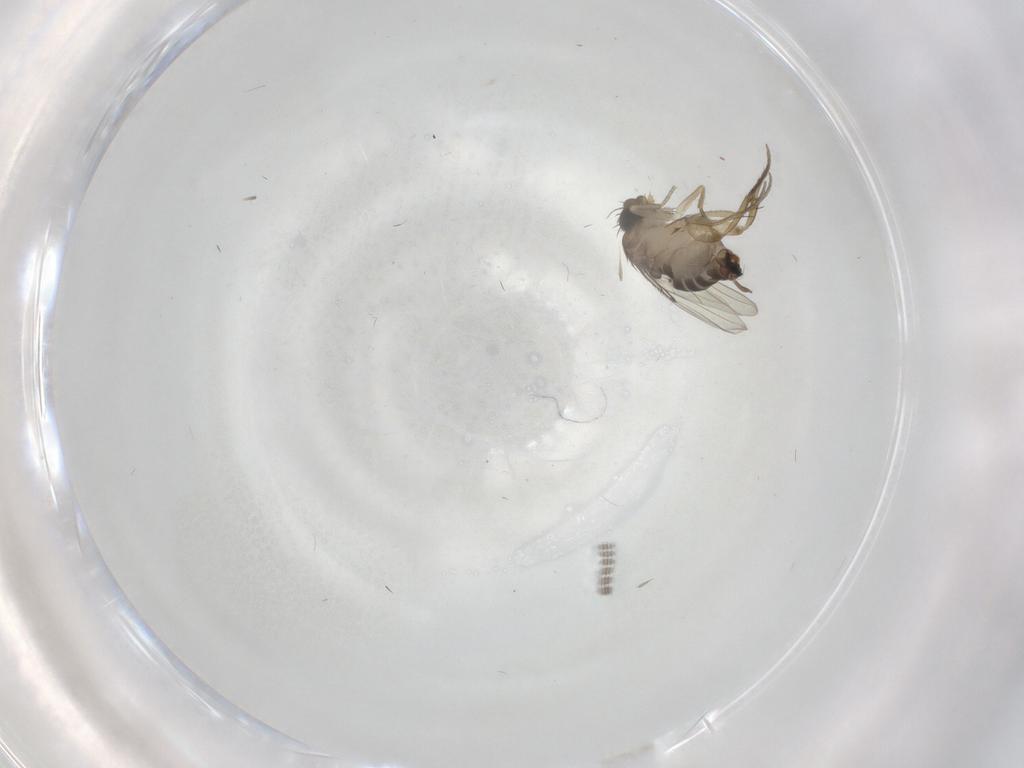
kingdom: Animalia
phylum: Arthropoda
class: Insecta
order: Diptera
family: Cecidomyiidae
